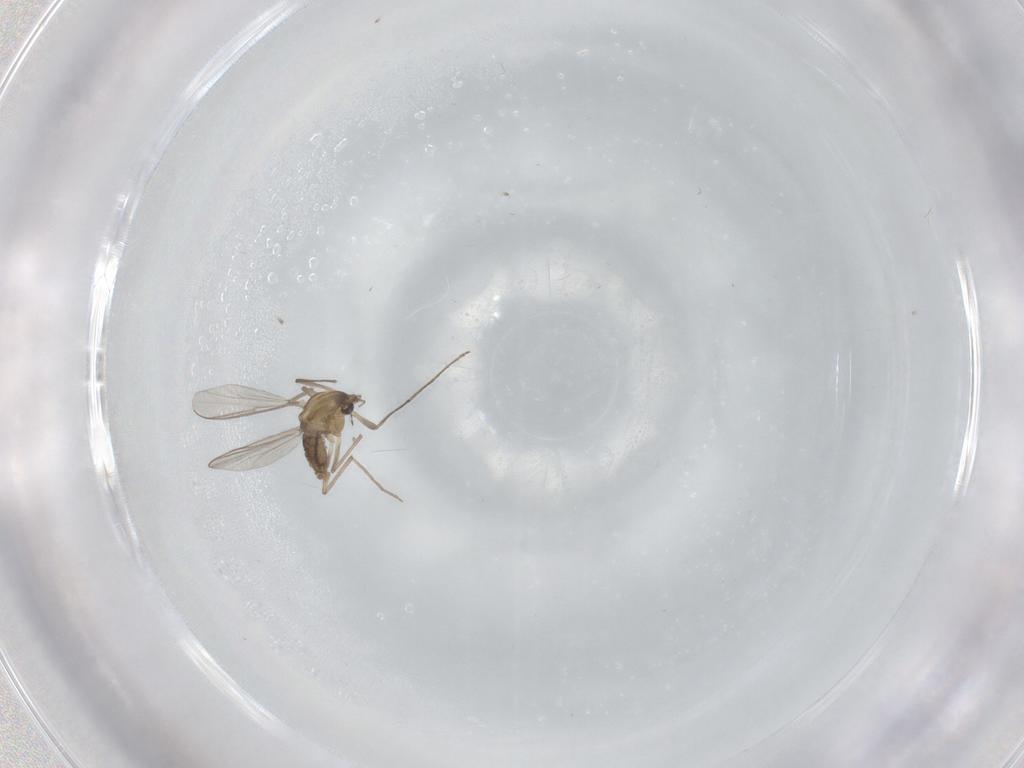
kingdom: Animalia
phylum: Arthropoda
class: Insecta
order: Diptera
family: Chironomidae
